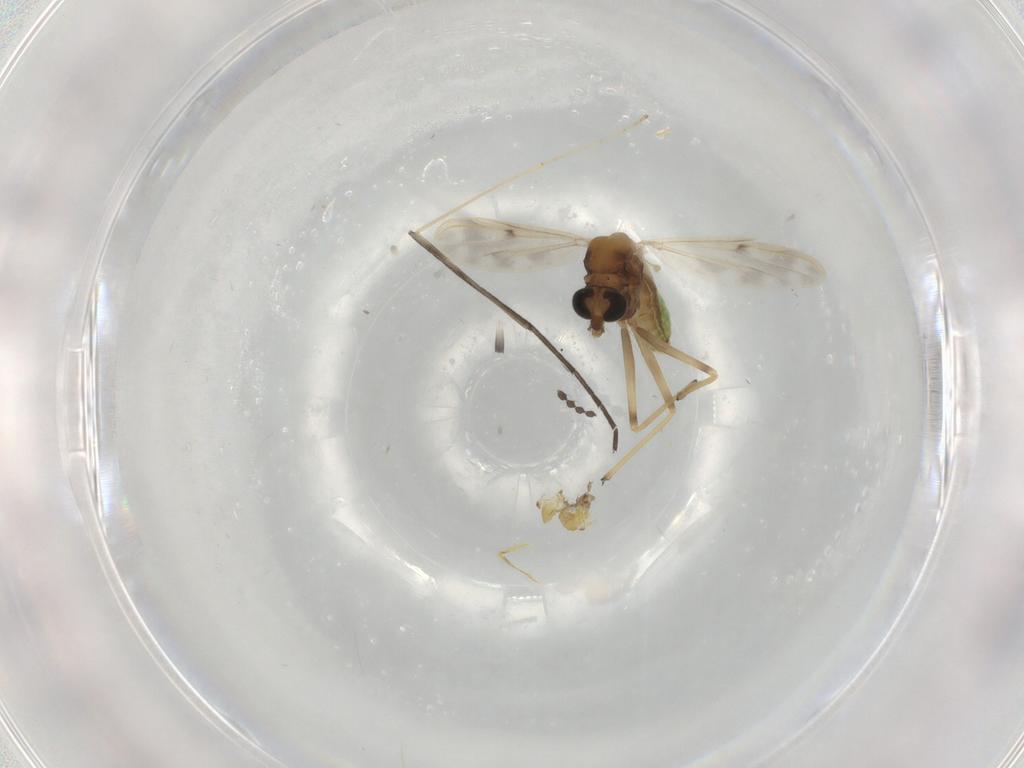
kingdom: Animalia
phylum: Arthropoda
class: Insecta
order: Diptera
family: Chironomidae
